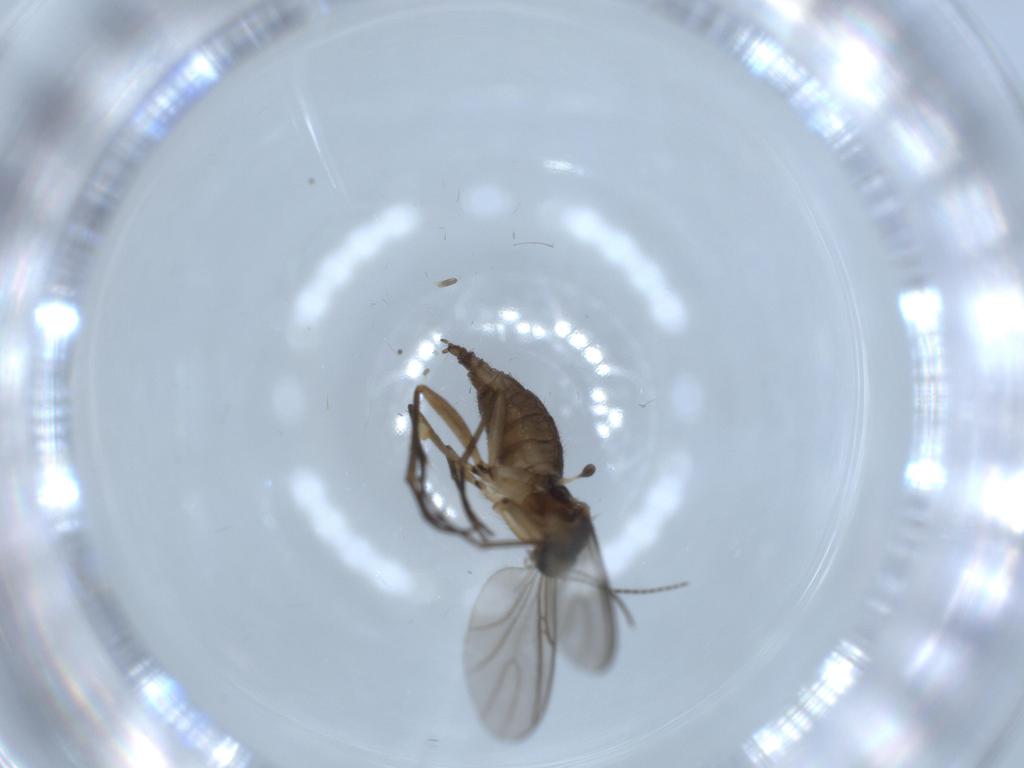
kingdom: Animalia
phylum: Arthropoda
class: Insecta
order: Diptera
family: Sciaridae
